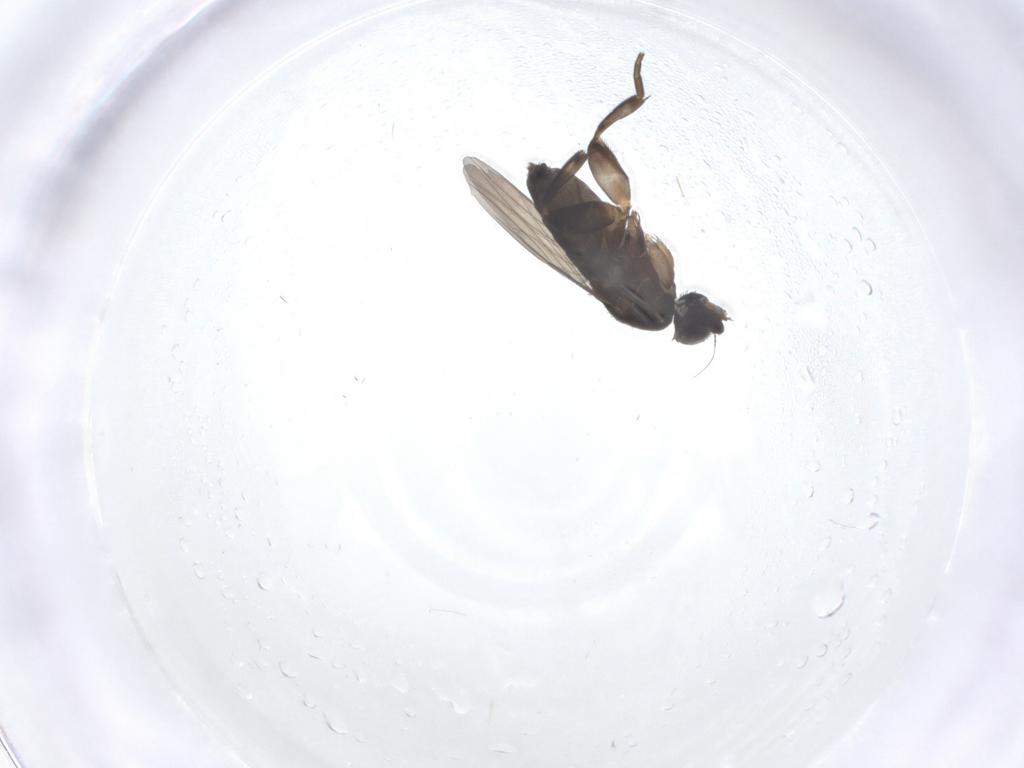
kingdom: Animalia
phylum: Arthropoda
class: Insecta
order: Diptera
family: Phoridae
